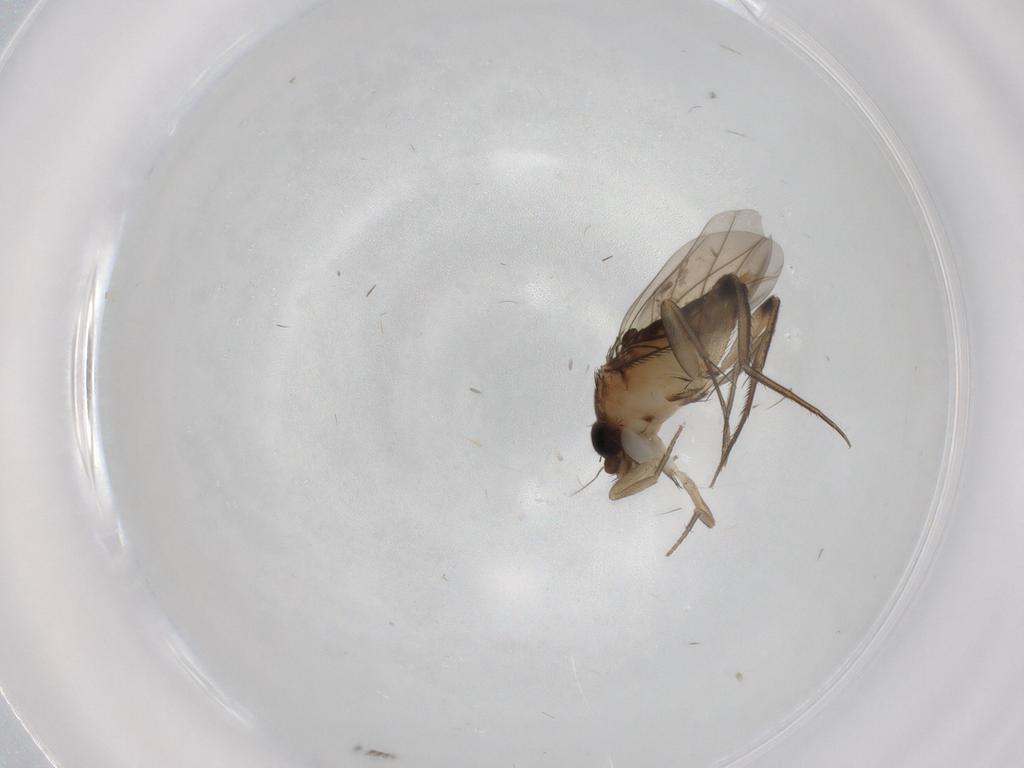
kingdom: Animalia
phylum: Arthropoda
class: Insecta
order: Diptera
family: Phoridae
